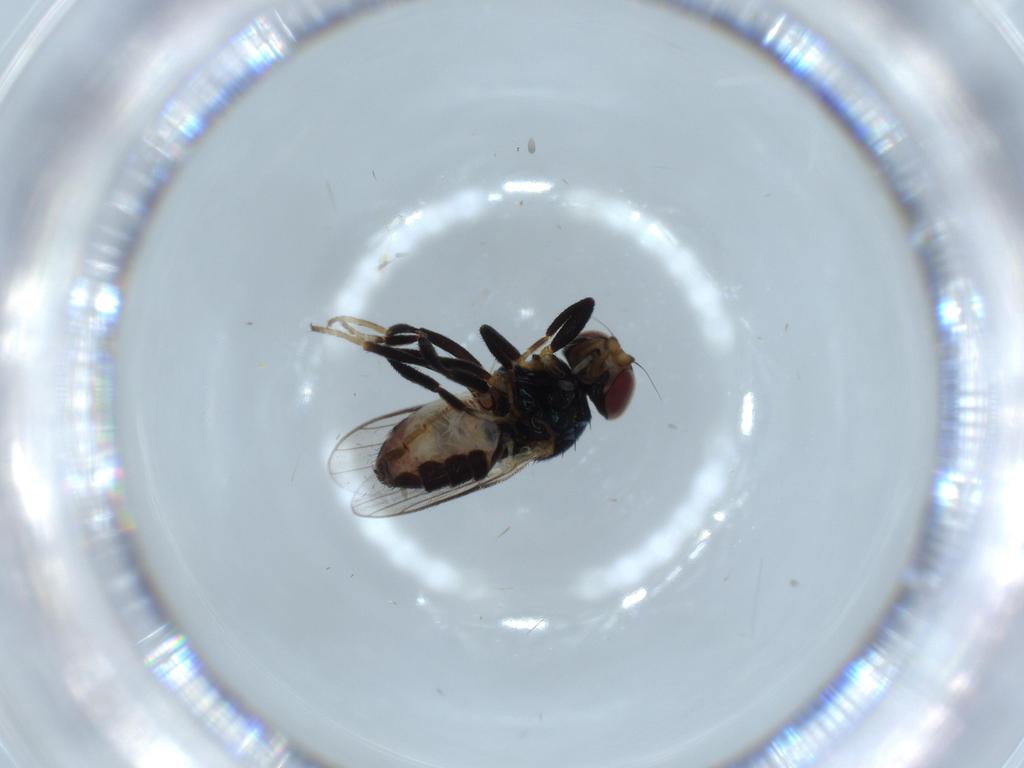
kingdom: Animalia
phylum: Arthropoda
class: Insecta
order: Diptera
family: Chloropidae
